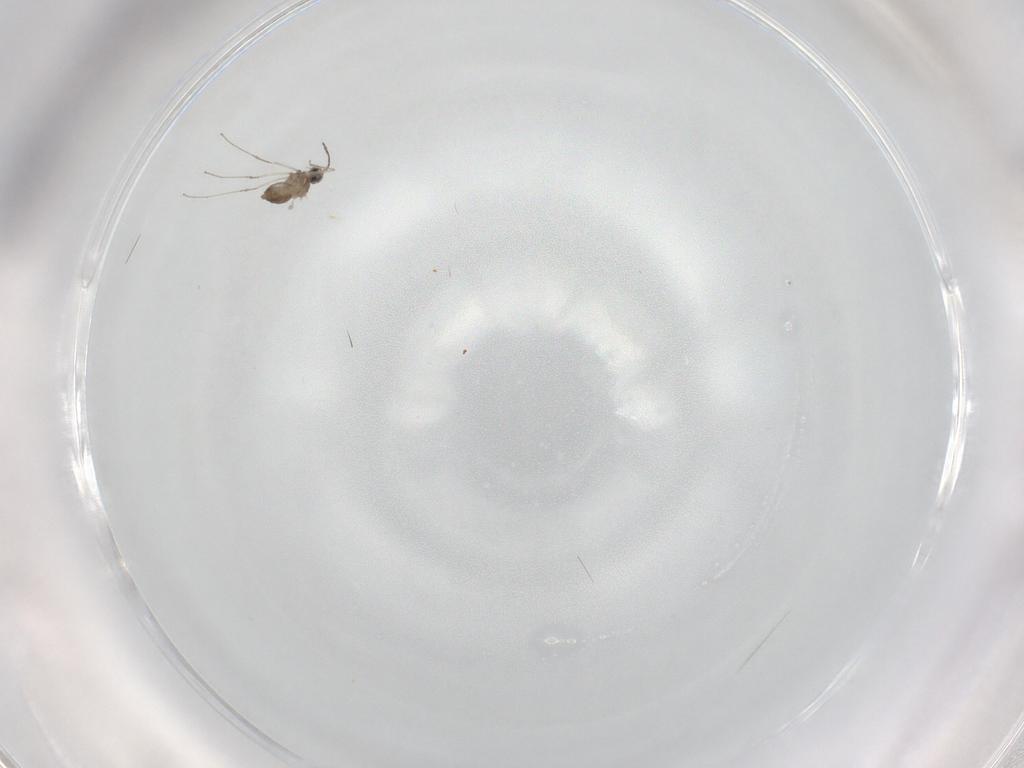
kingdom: Animalia
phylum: Arthropoda
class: Insecta
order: Diptera
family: Cecidomyiidae
